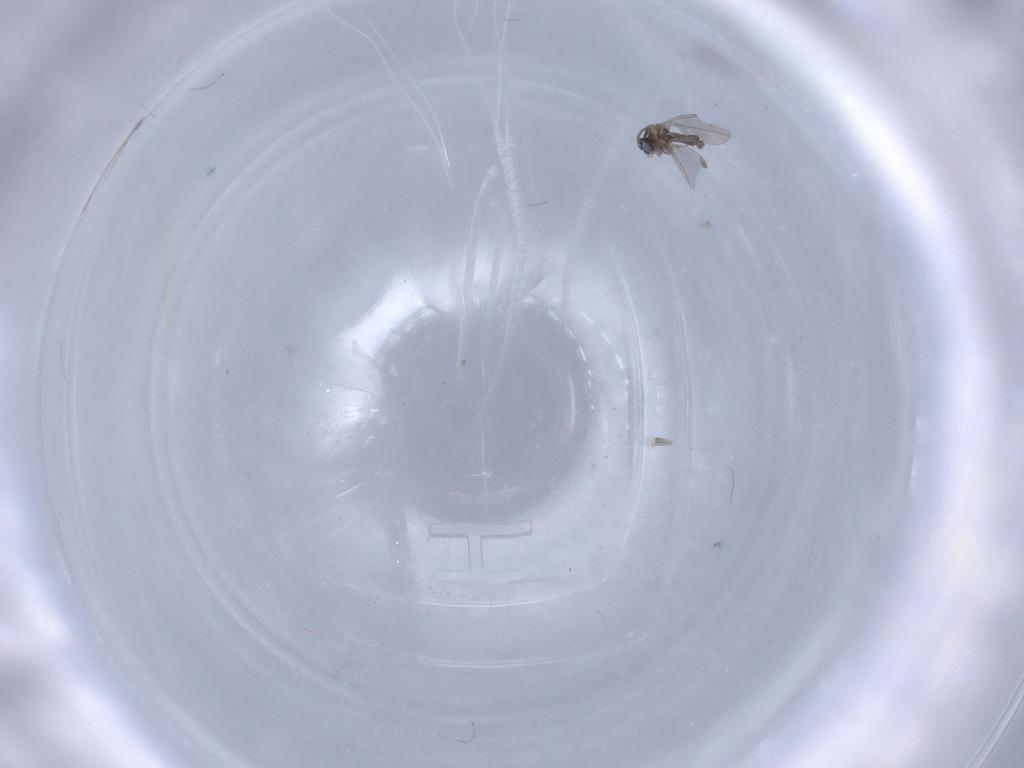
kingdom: Animalia
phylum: Arthropoda
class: Insecta
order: Diptera
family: Cecidomyiidae
